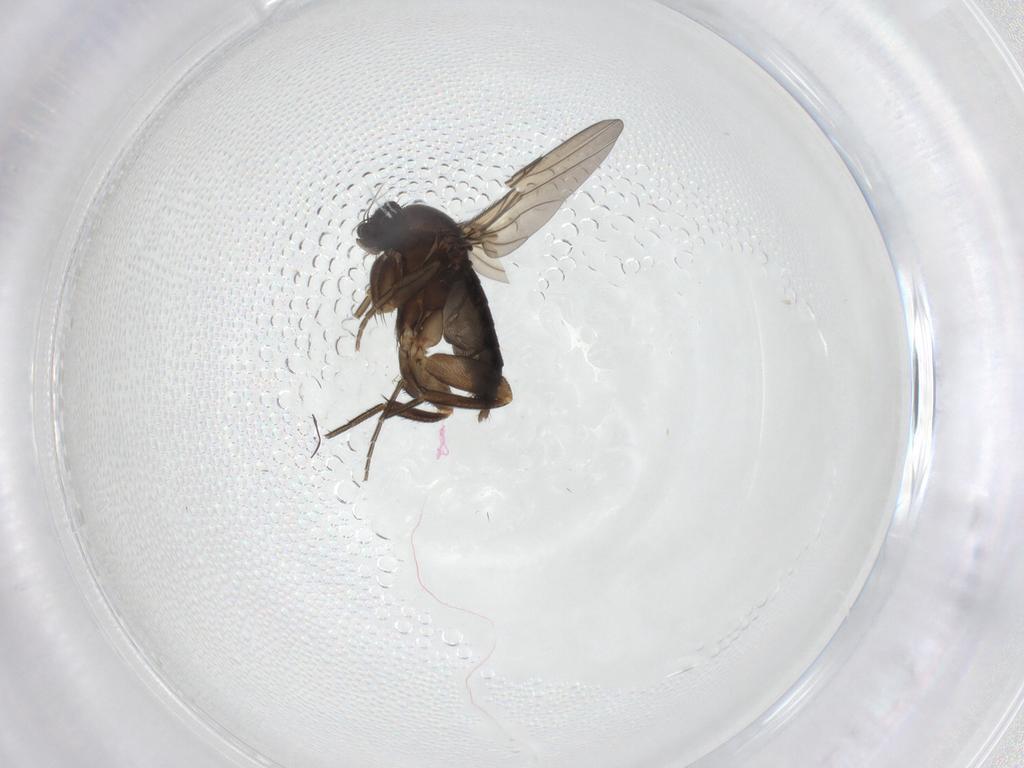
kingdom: Animalia
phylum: Arthropoda
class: Insecta
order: Diptera
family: Phoridae
